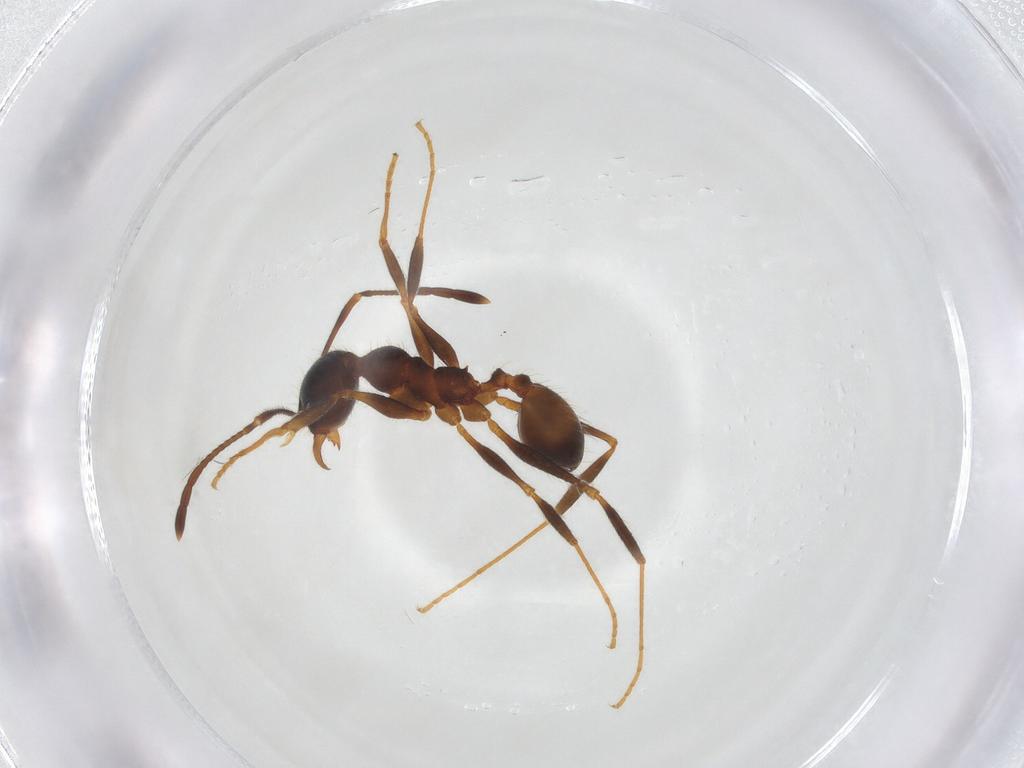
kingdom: Animalia
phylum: Arthropoda
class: Insecta
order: Hymenoptera
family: Formicidae
